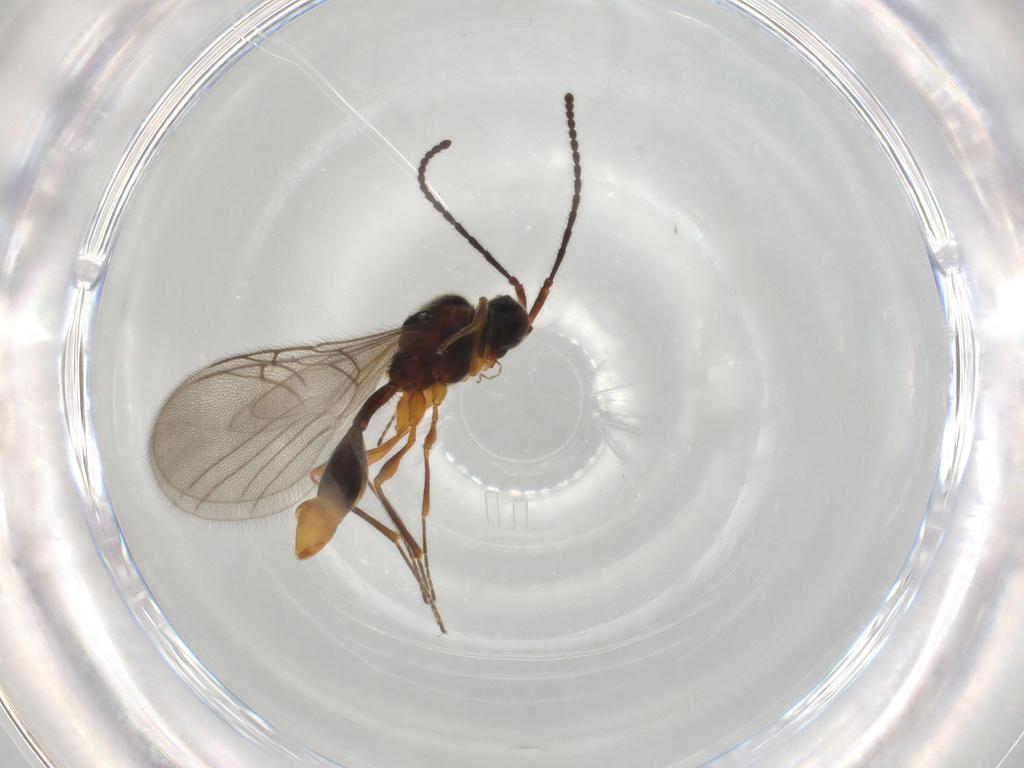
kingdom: Animalia
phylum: Arthropoda
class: Insecta
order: Hymenoptera
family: Diapriidae
